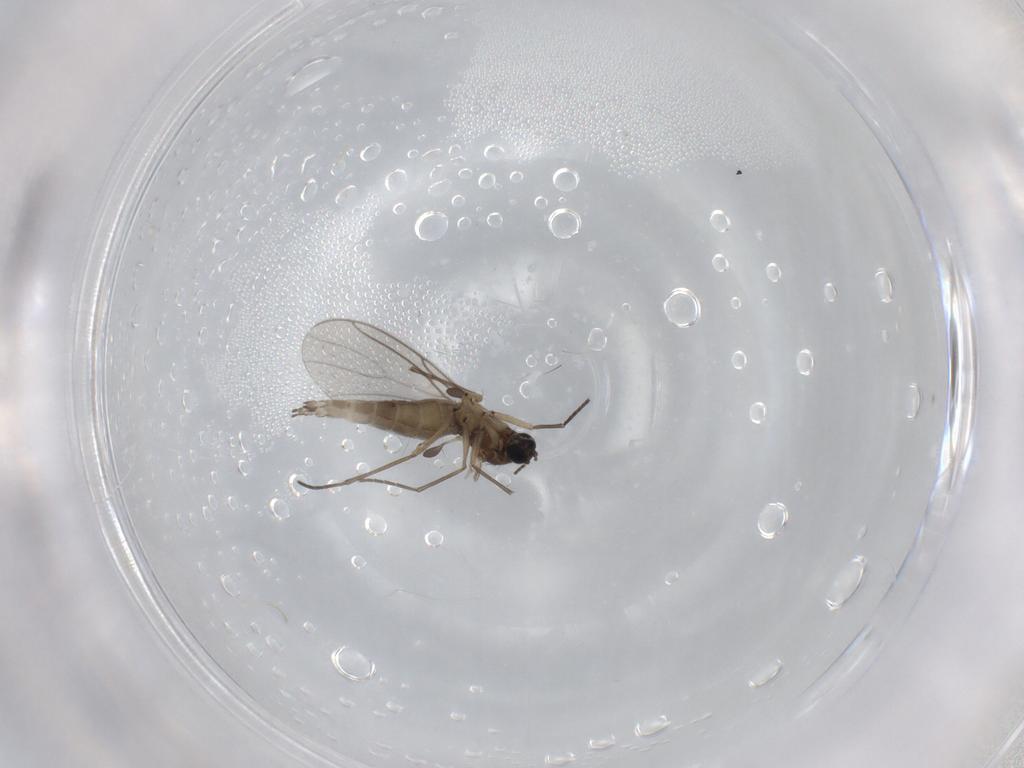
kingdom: Animalia
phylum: Arthropoda
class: Insecta
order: Diptera
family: Sciaridae
